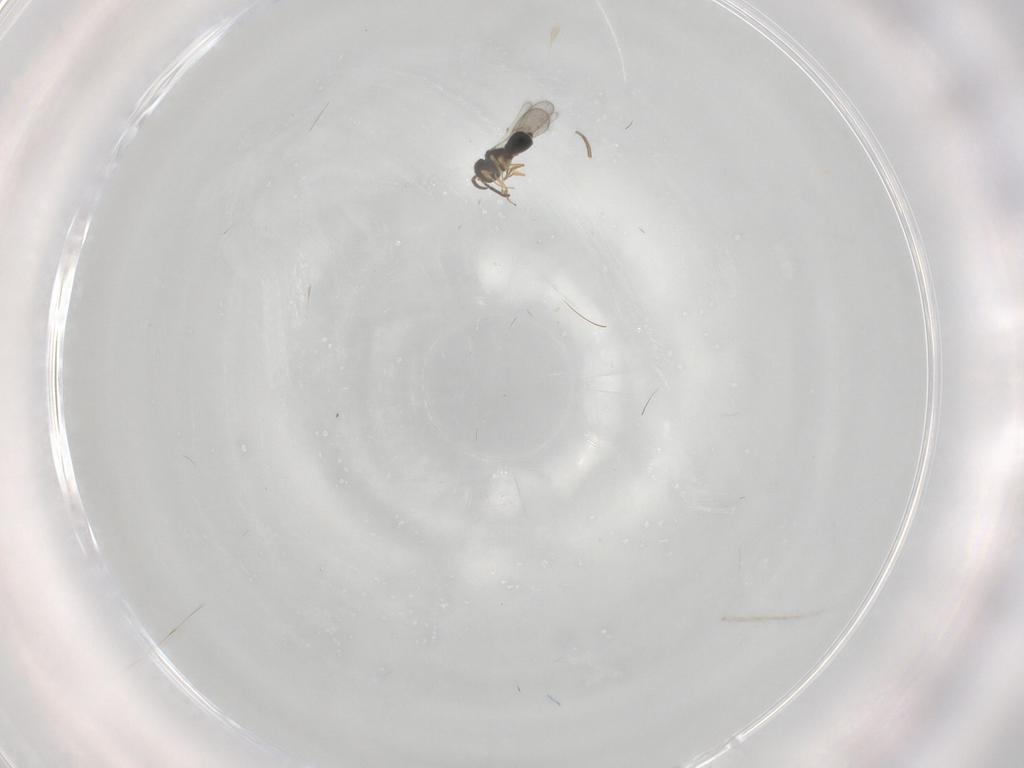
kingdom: Animalia
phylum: Arthropoda
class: Insecta
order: Hymenoptera
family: Scelionidae
